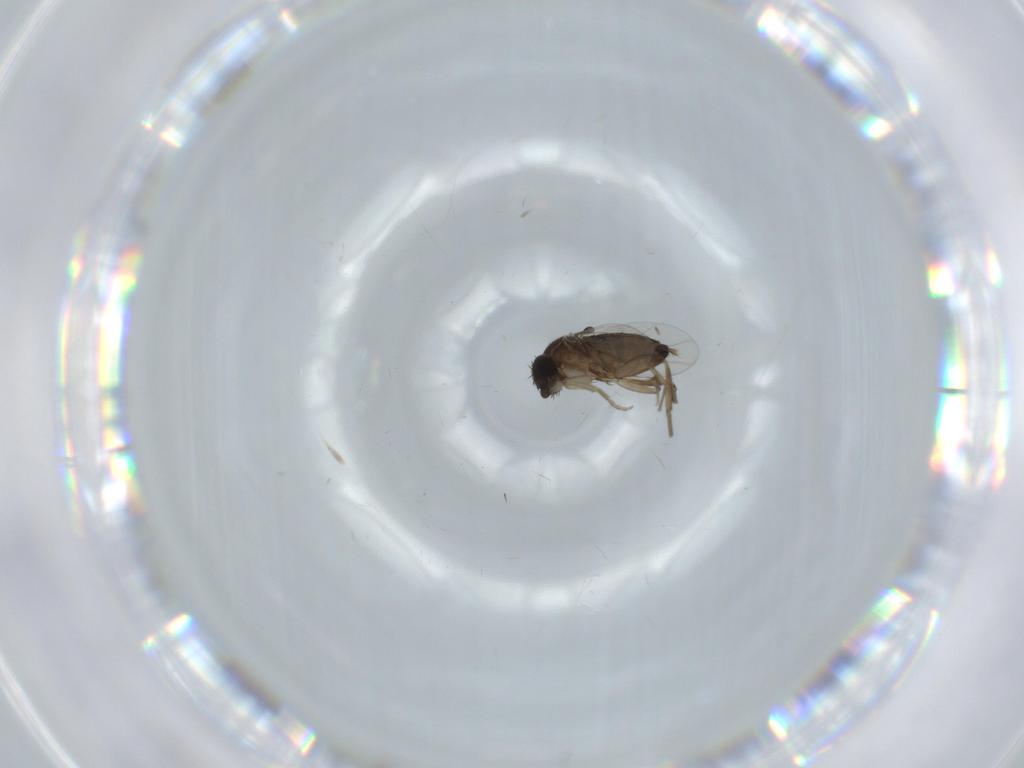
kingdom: Animalia
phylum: Arthropoda
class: Insecta
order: Diptera
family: Phoridae
